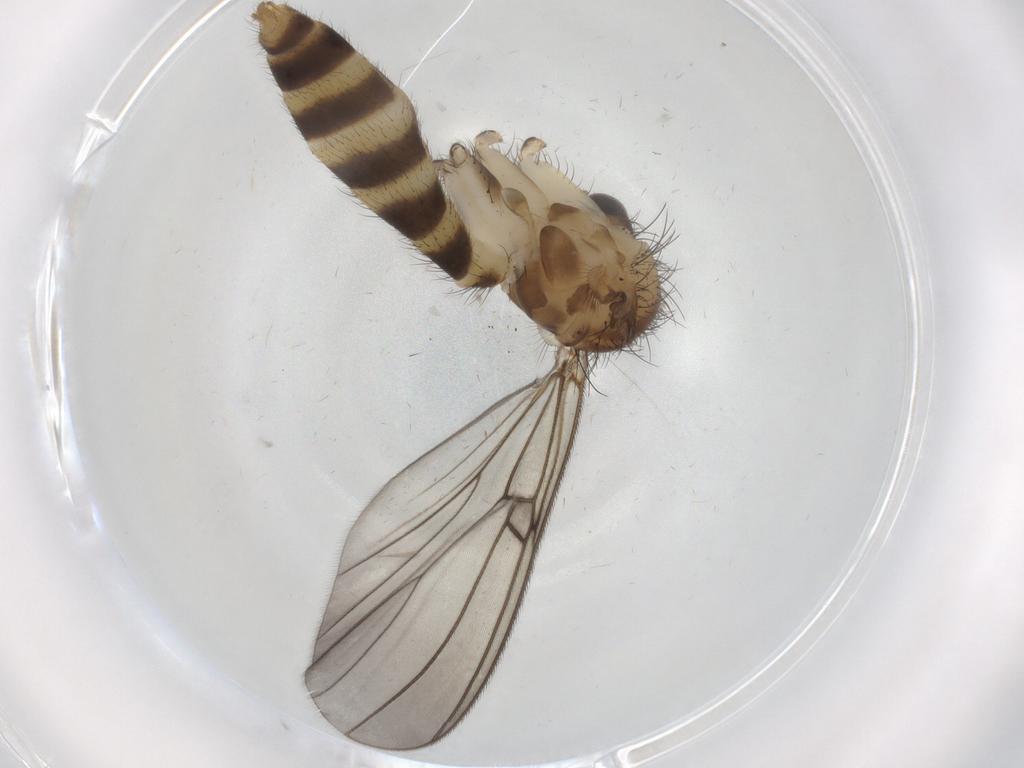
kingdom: Animalia
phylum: Arthropoda
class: Insecta
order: Diptera
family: Mycetophilidae
